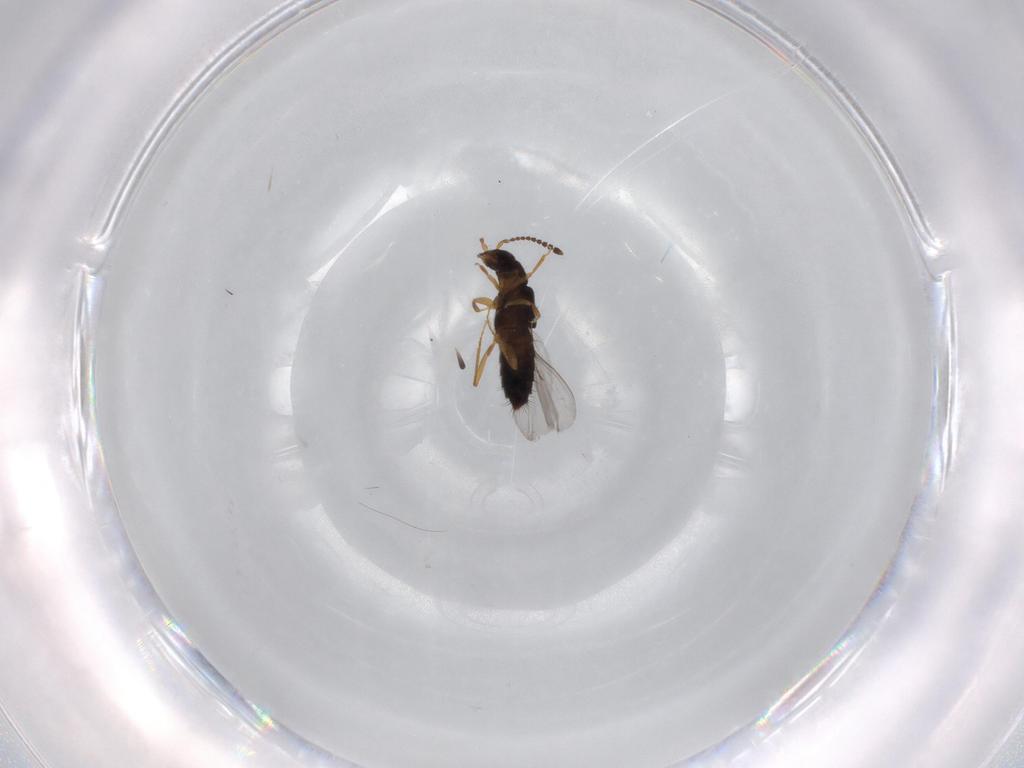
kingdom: Animalia
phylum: Arthropoda
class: Insecta
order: Coleoptera
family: Staphylinidae
